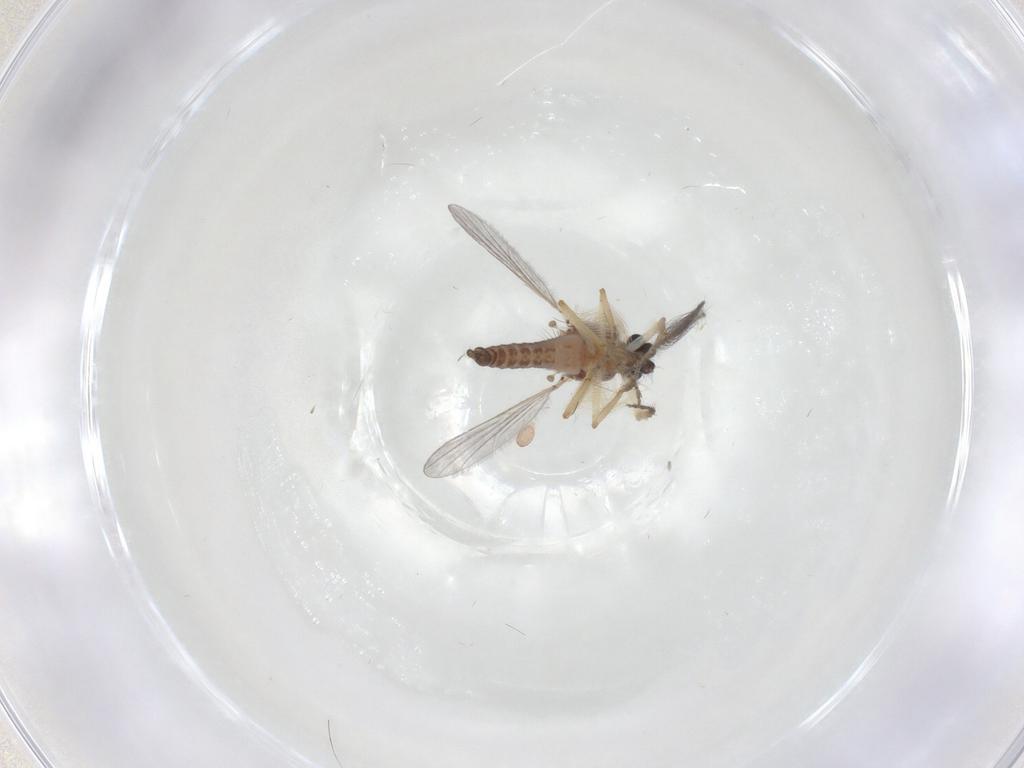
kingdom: Animalia
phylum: Arthropoda
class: Insecta
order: Diptera
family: Ceratopogonidae
